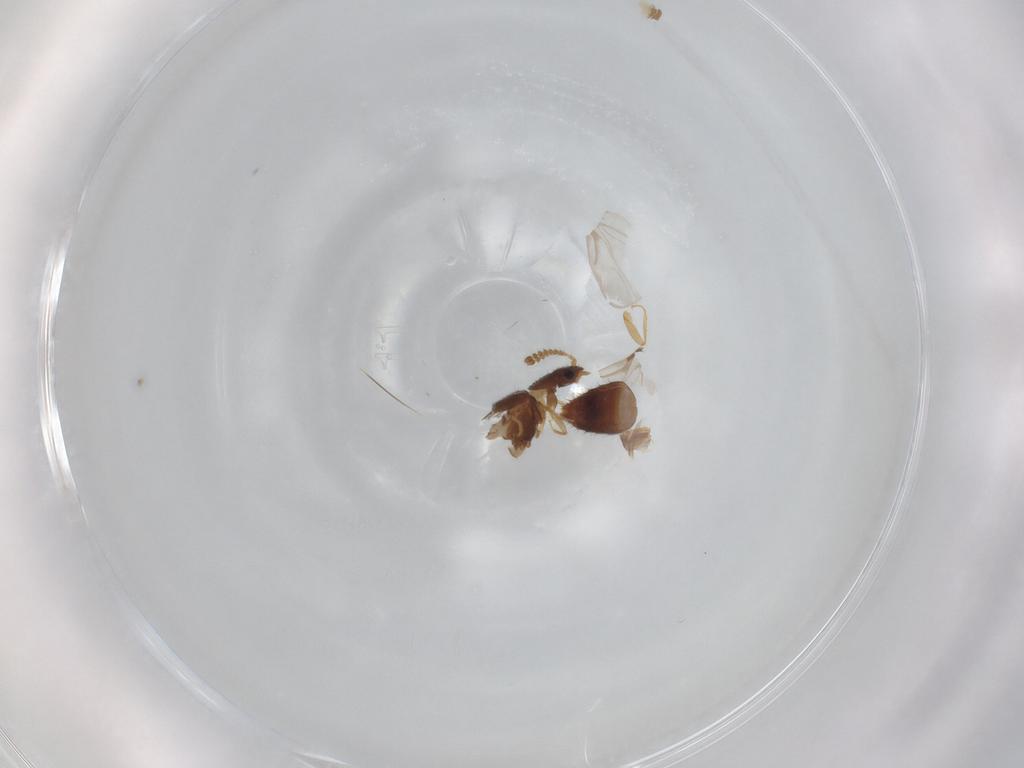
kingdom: Animalia
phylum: Arthropoda
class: Insecta
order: Coleoptera
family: Staphylinidae
